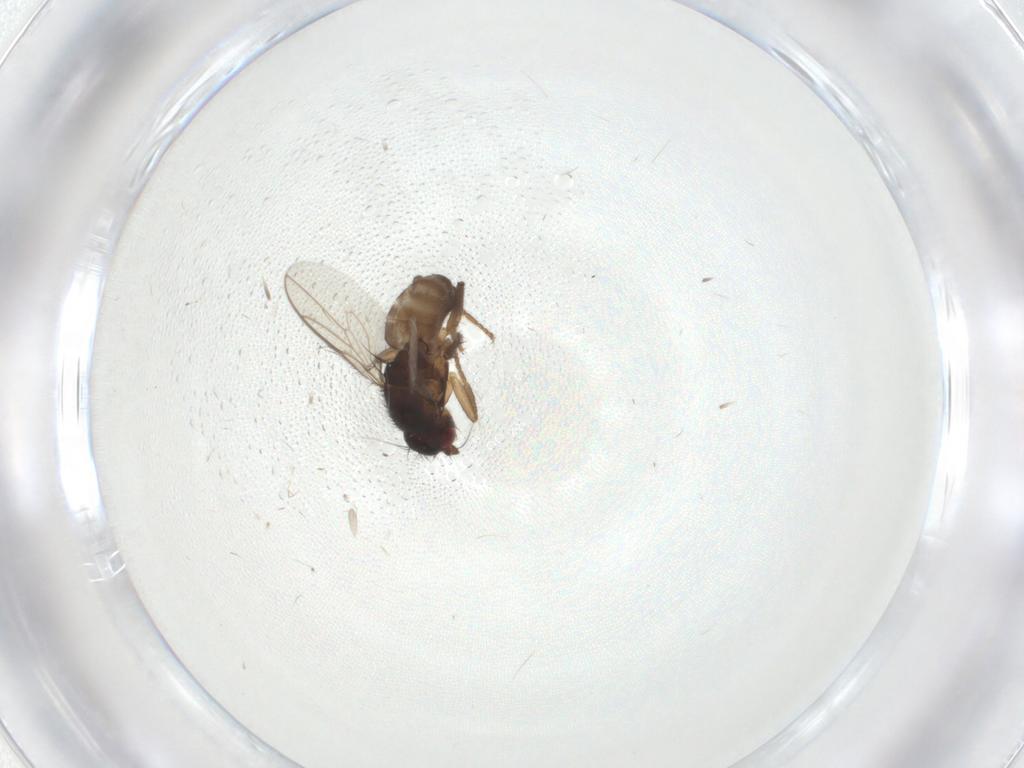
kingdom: Animalia
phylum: Arthropoda
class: Insecta
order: Diptera
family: Sphaeroceridae
